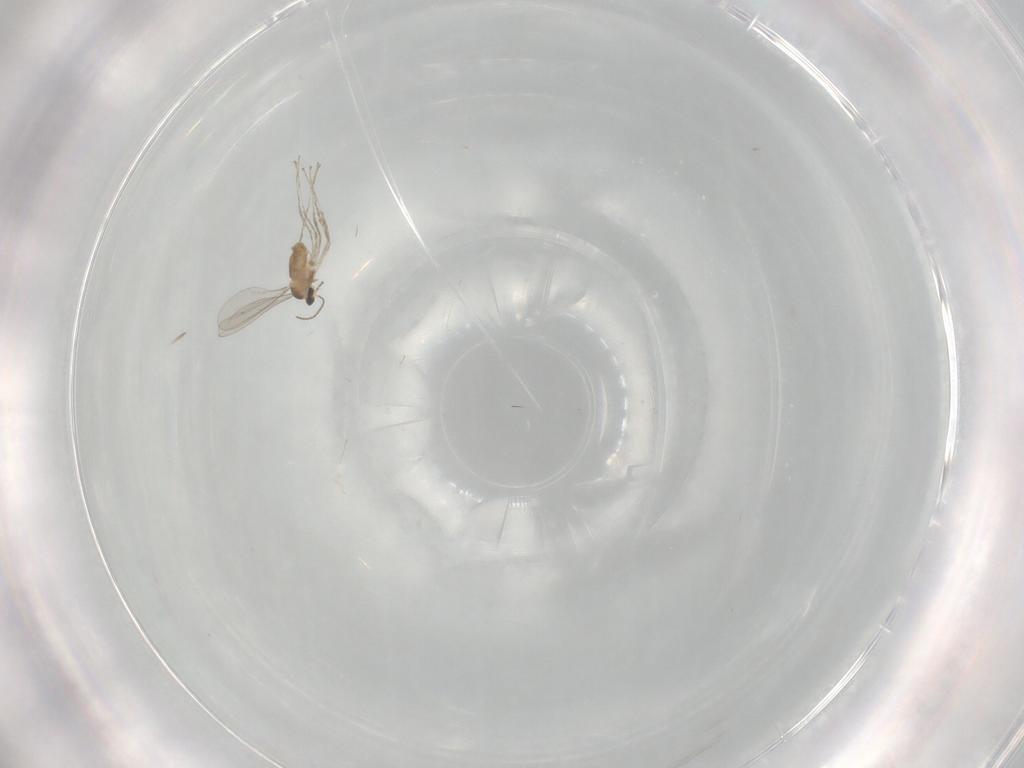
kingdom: Animalia
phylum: Arthropoda
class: Insecta
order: Diptera
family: Cecidomyiidae
